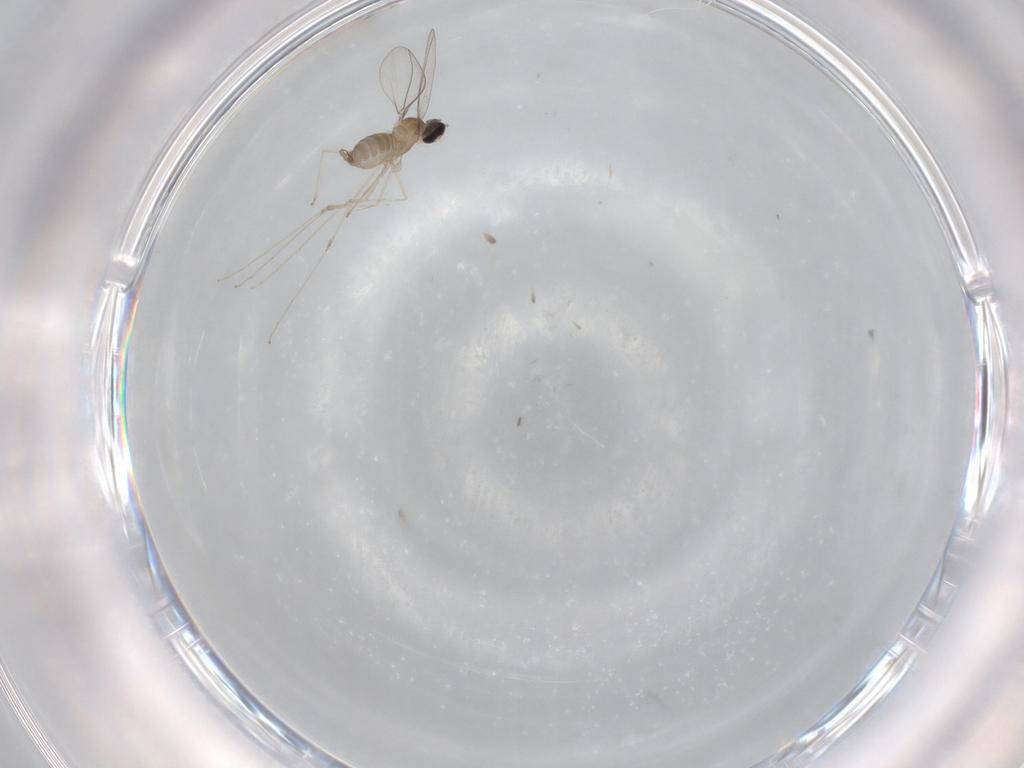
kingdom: Animalia
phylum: Arthropoda
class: Insecta
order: Diptera
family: Cecidomyiidae
